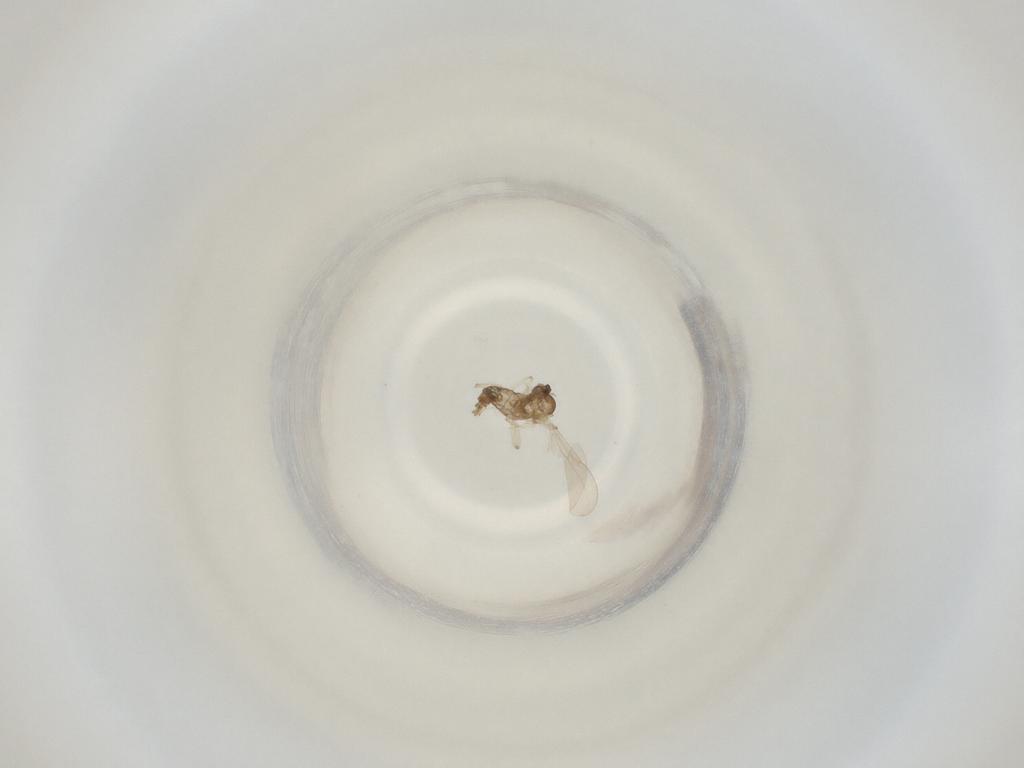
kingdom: Animalia
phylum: Arthropoda
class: Insecta
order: Diptera
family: Cecidomyiidae
